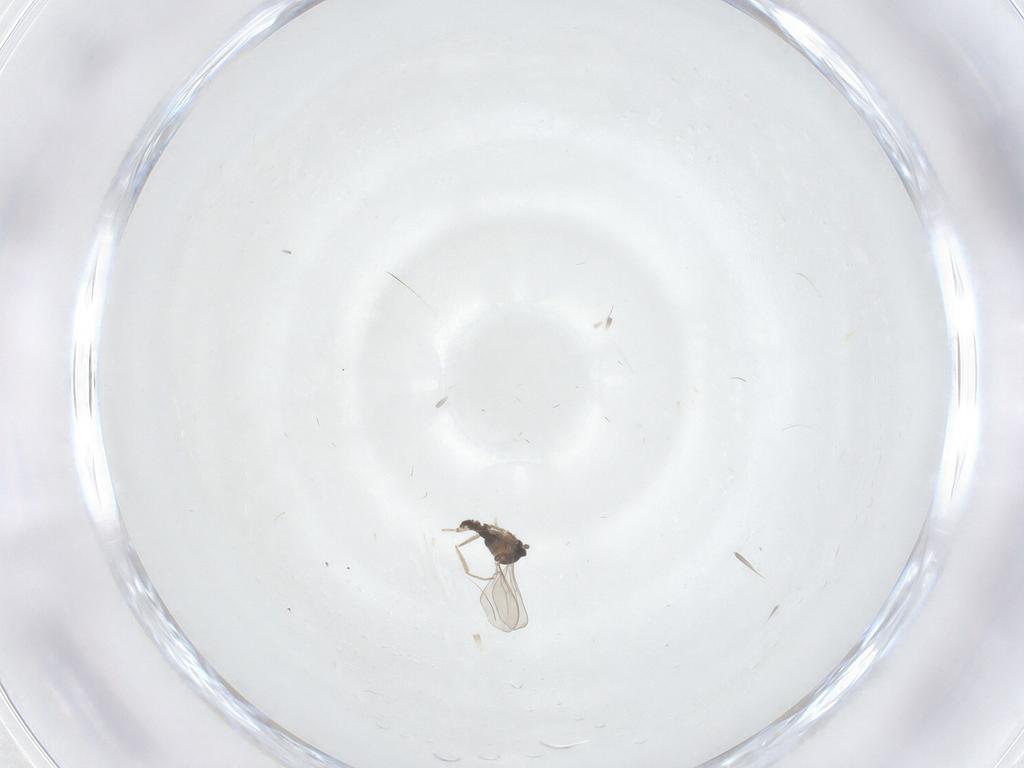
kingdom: Animalia
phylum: Arthropoda
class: Insecta
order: Diptera
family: Cecidomyiidae
